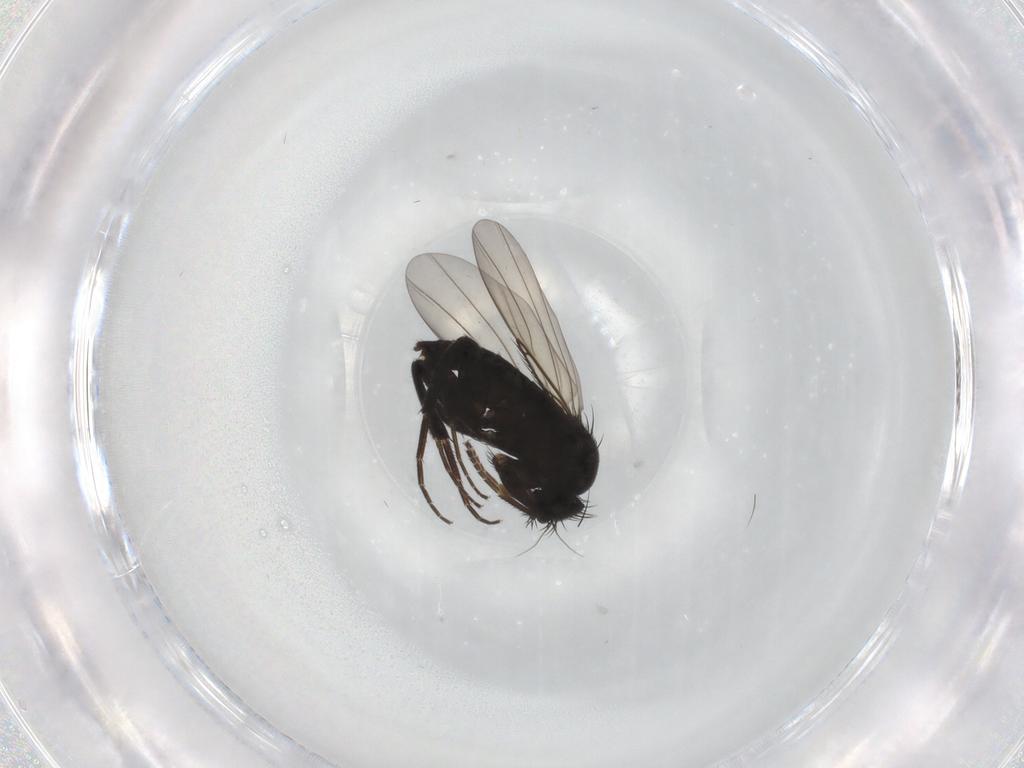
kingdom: Animalia
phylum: Arthropoda
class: Insecta
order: Diptera
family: Phoridae
